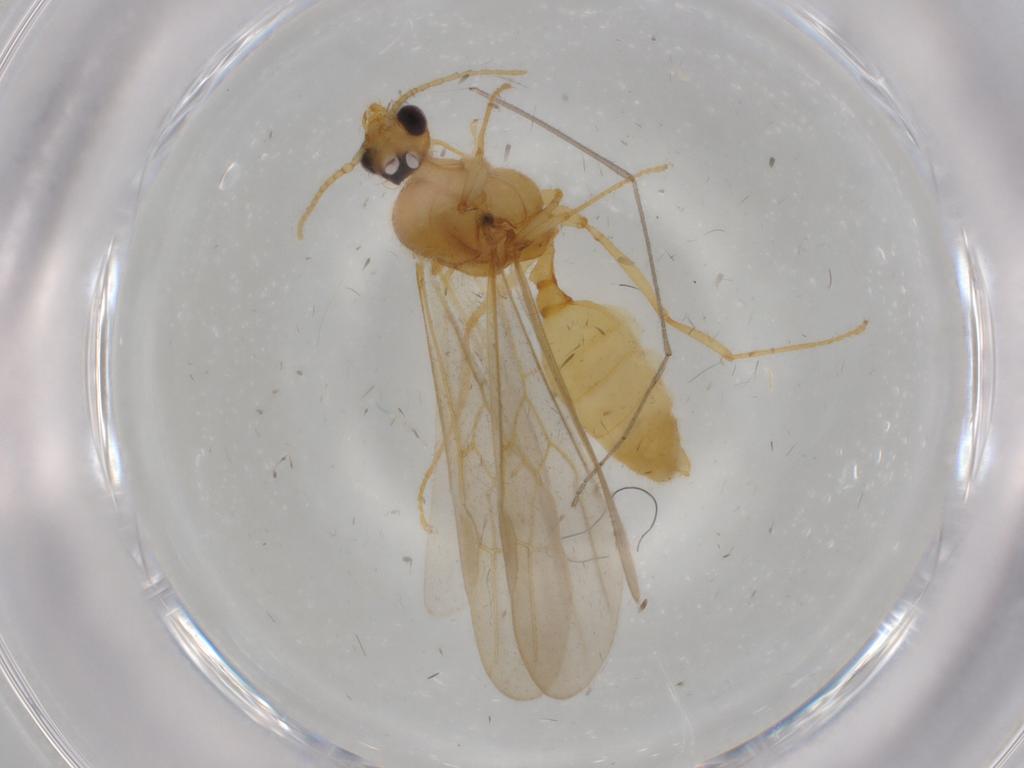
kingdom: Animalia
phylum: Arthropoda
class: Insecta
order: Hymenoptera
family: Formicidae
